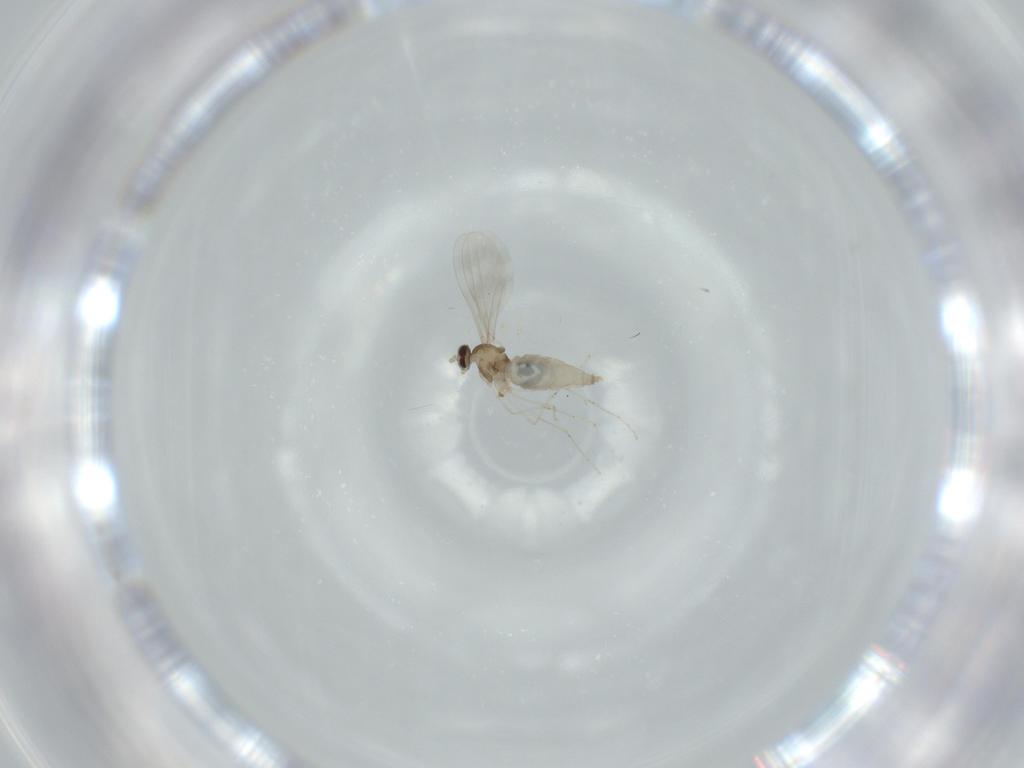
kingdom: Animalia
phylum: Arthropoda
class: Insecta
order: Diptera
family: Cecidomyiidae
